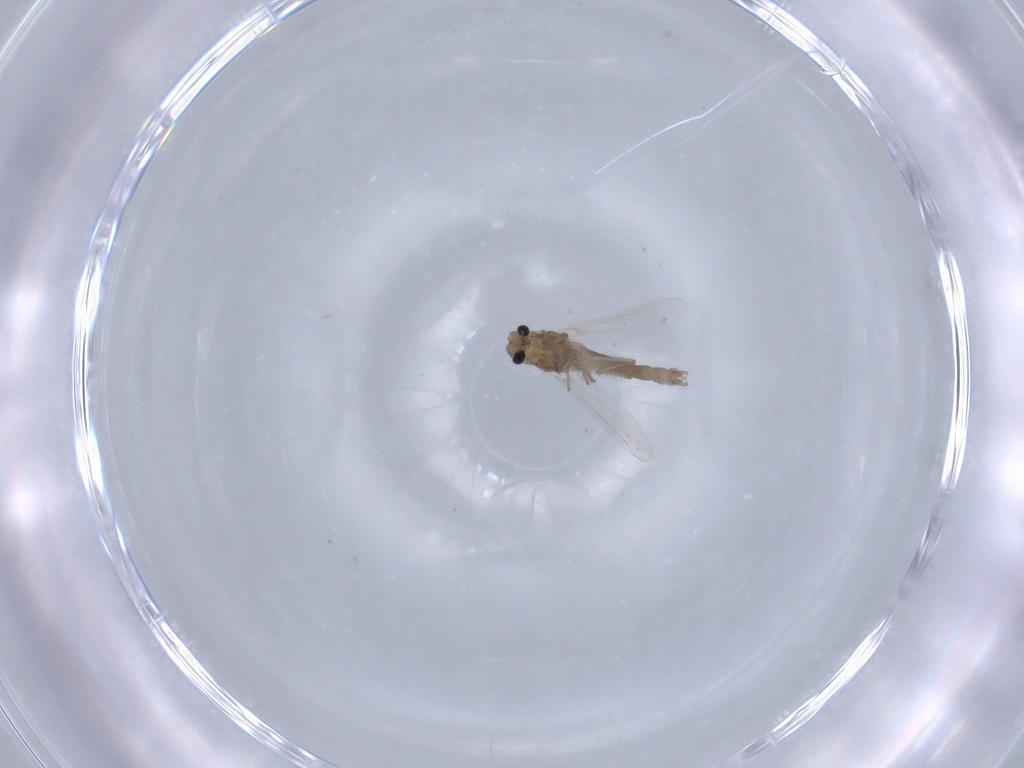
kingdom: Animalia
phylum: Arthropoda
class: Insecta
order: Diptera
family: Chironomidae
